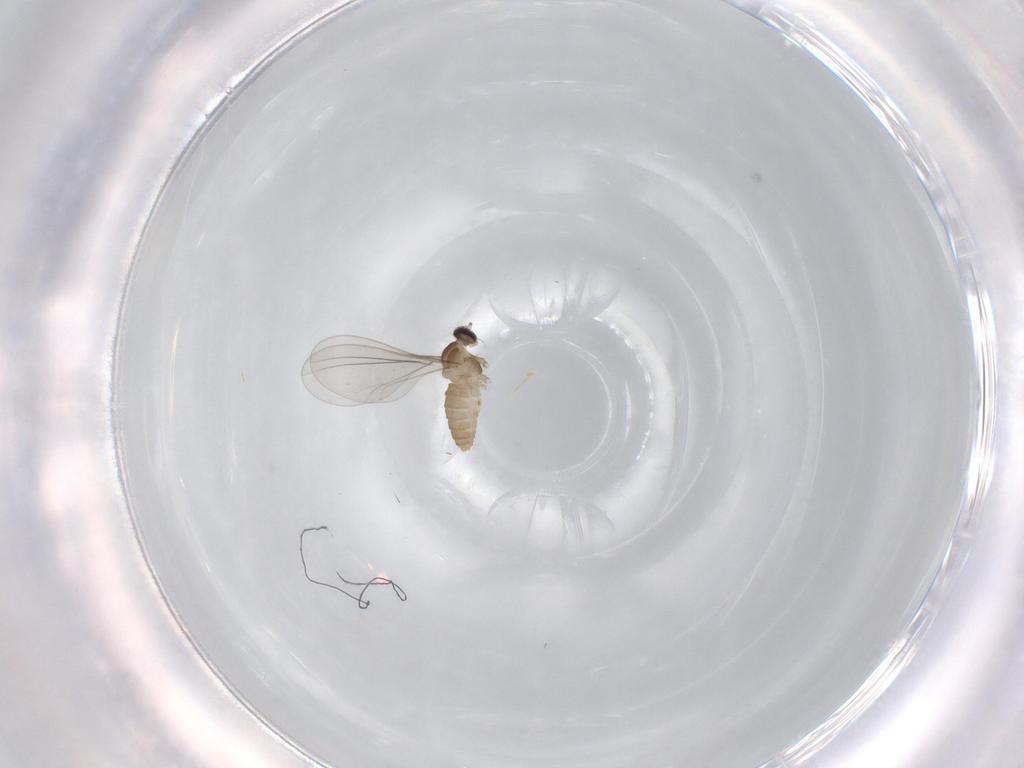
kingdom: Animalia
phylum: Arthropoda
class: Insecta
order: Diptera
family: Cecidomyiidae
